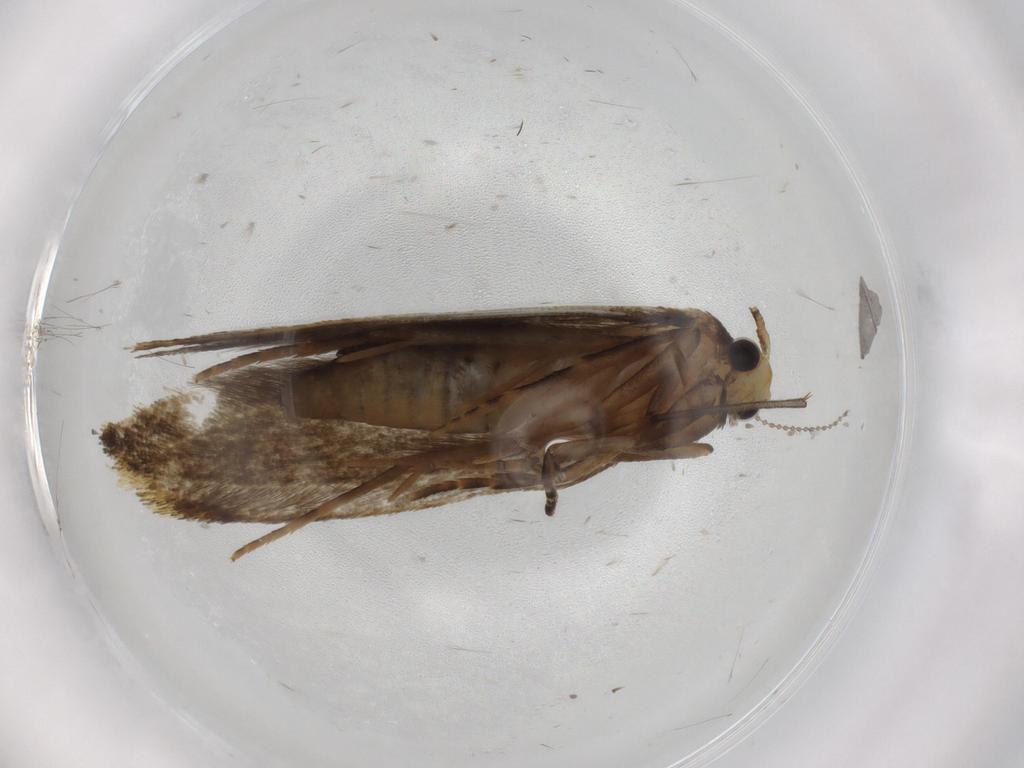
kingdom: Animalia
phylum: Arthropoda
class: Insecta
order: Lepidoptera
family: Tineidae
